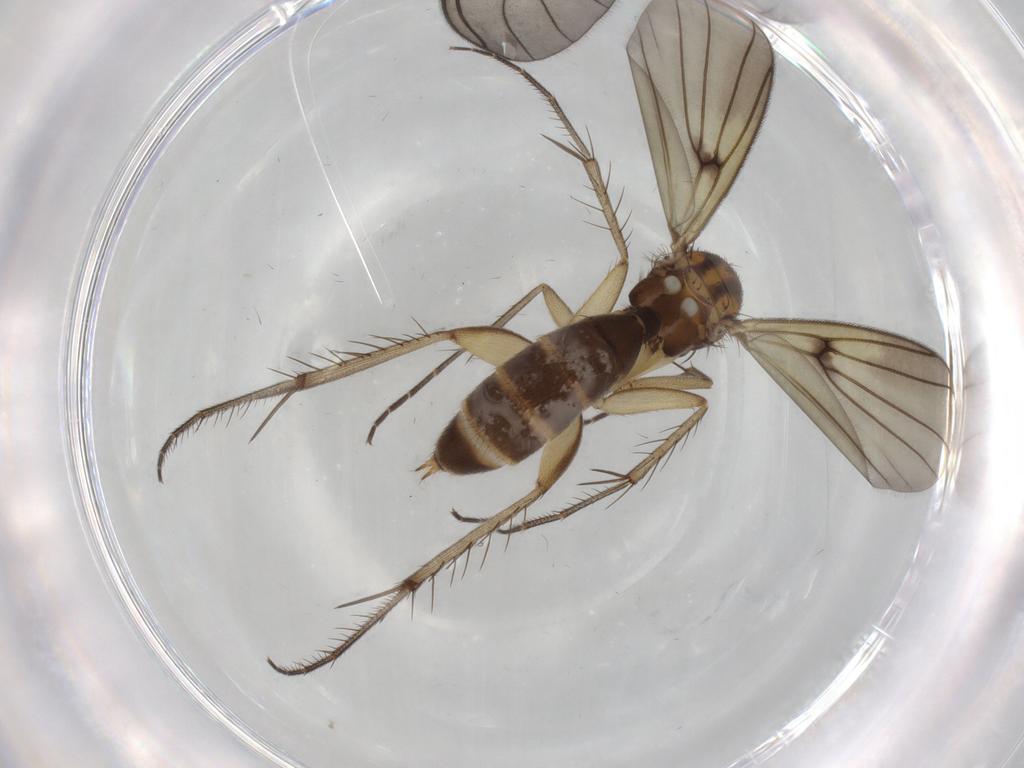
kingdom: Animalia
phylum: Arthropoda
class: Insecta
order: Diptera
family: Mycetophilidae
